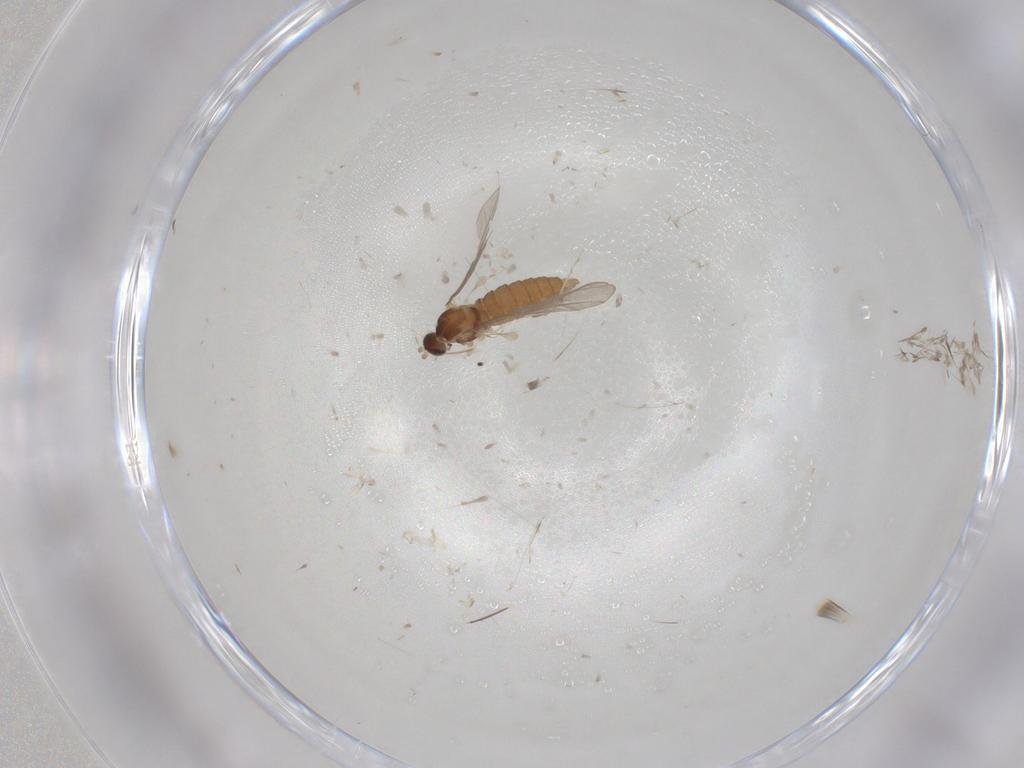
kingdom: Animalia
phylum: Arthropoda
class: Insecta
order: Diptera
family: Cecidomyiidae
